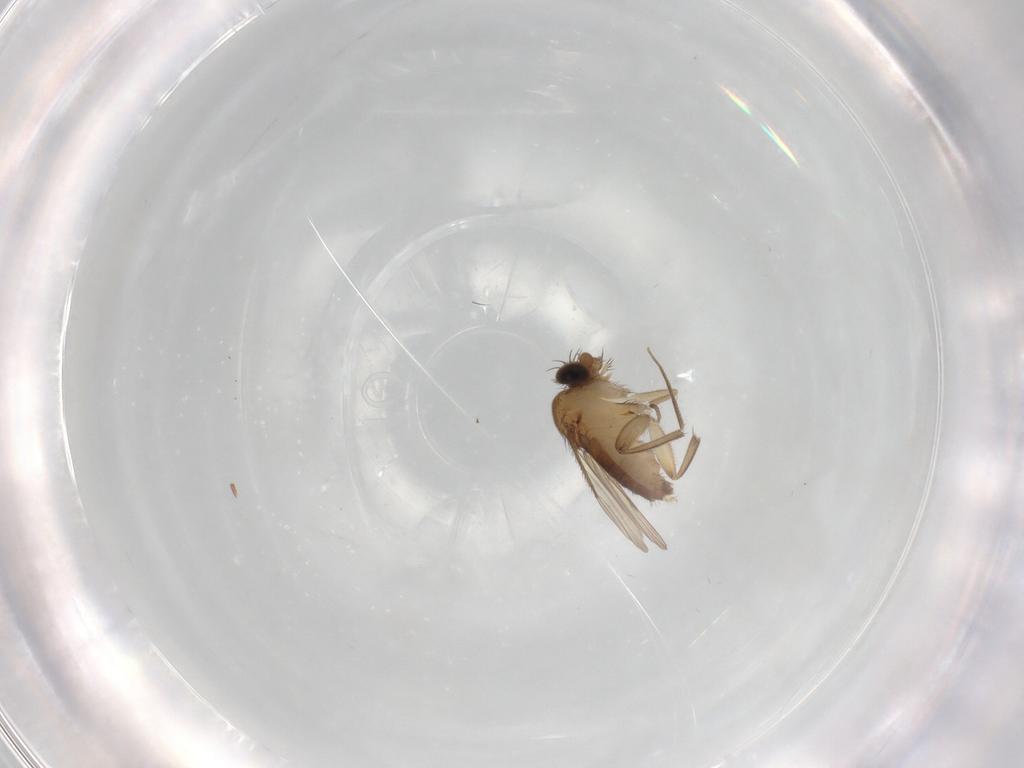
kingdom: Animalia
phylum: Arthropoda
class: Insecta
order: Diptera
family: Phoridae
